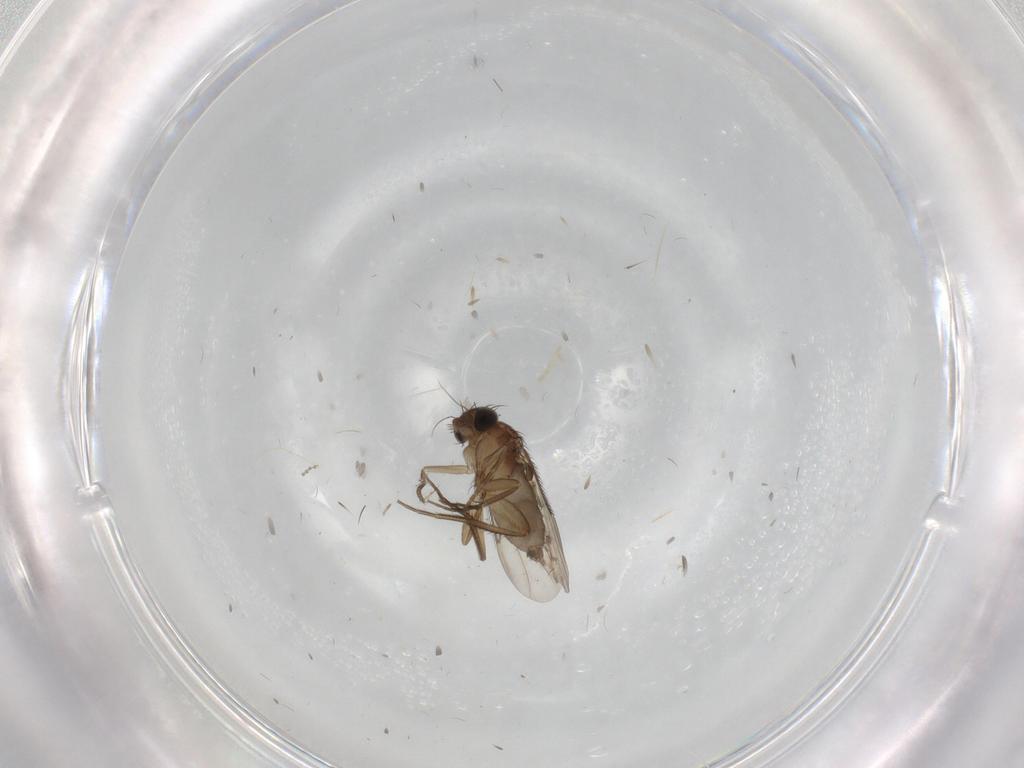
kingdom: Animalia
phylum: Arthropoda
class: Insecta
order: Diptera
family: Phoridae
